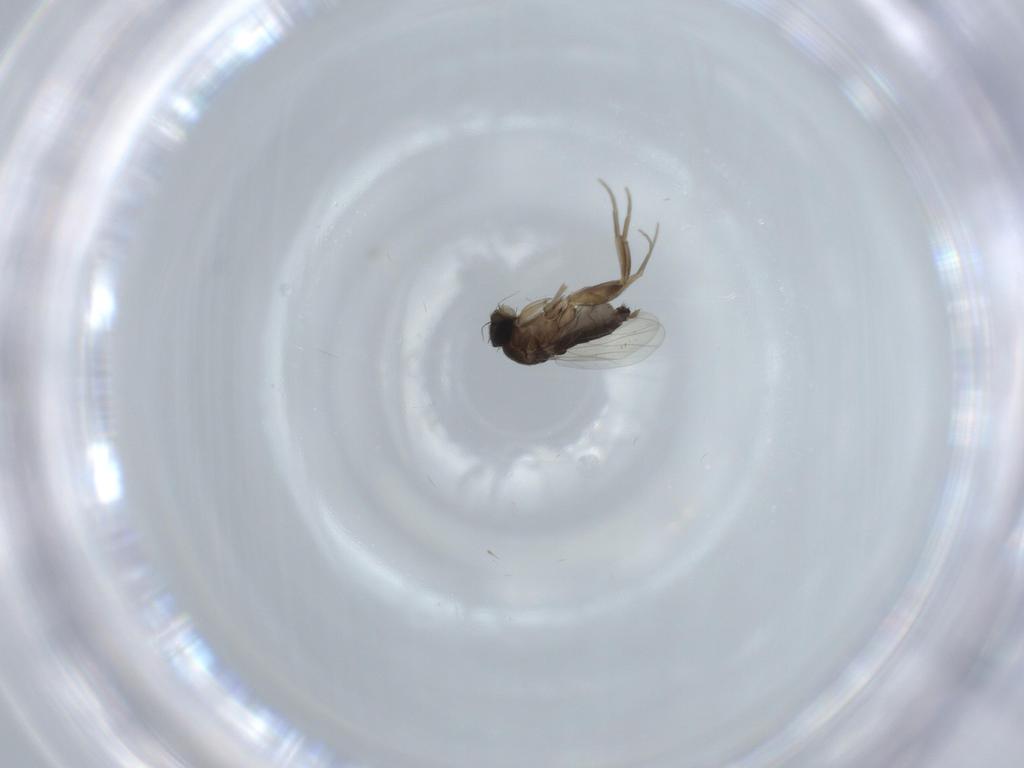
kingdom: Animalia
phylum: Arthropoda
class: Insecta
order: Diptera
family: Phoridae
